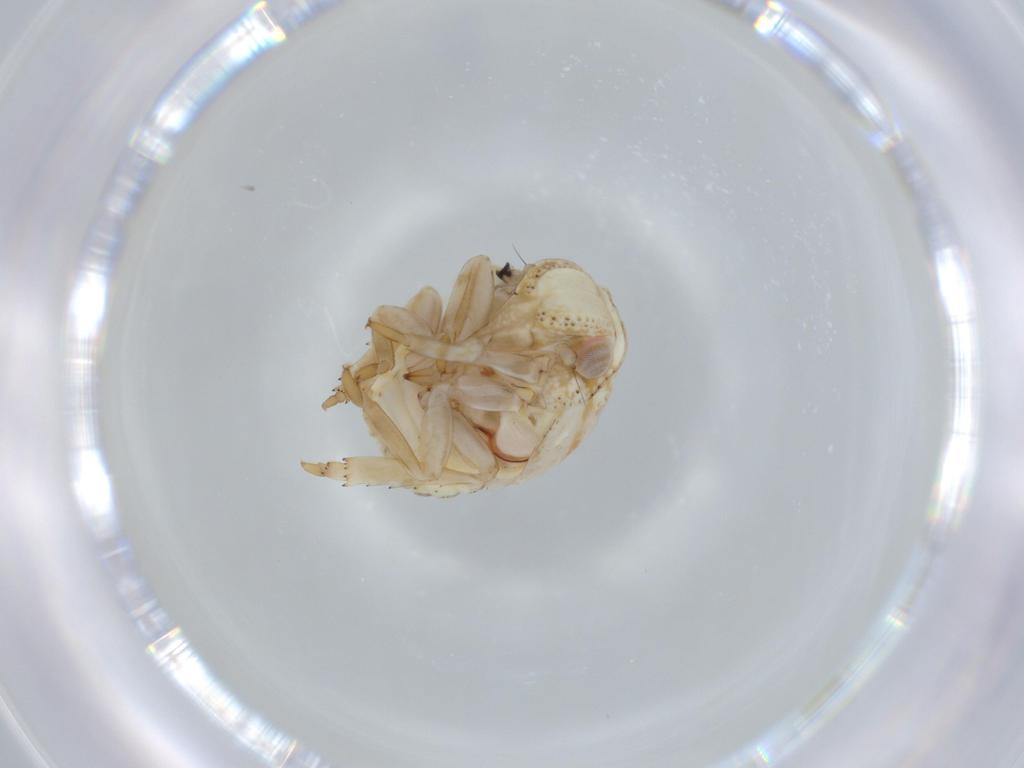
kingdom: Animalia
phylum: Arthropoda
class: Insecta
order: Hemiptera
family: Acanaloniidae
